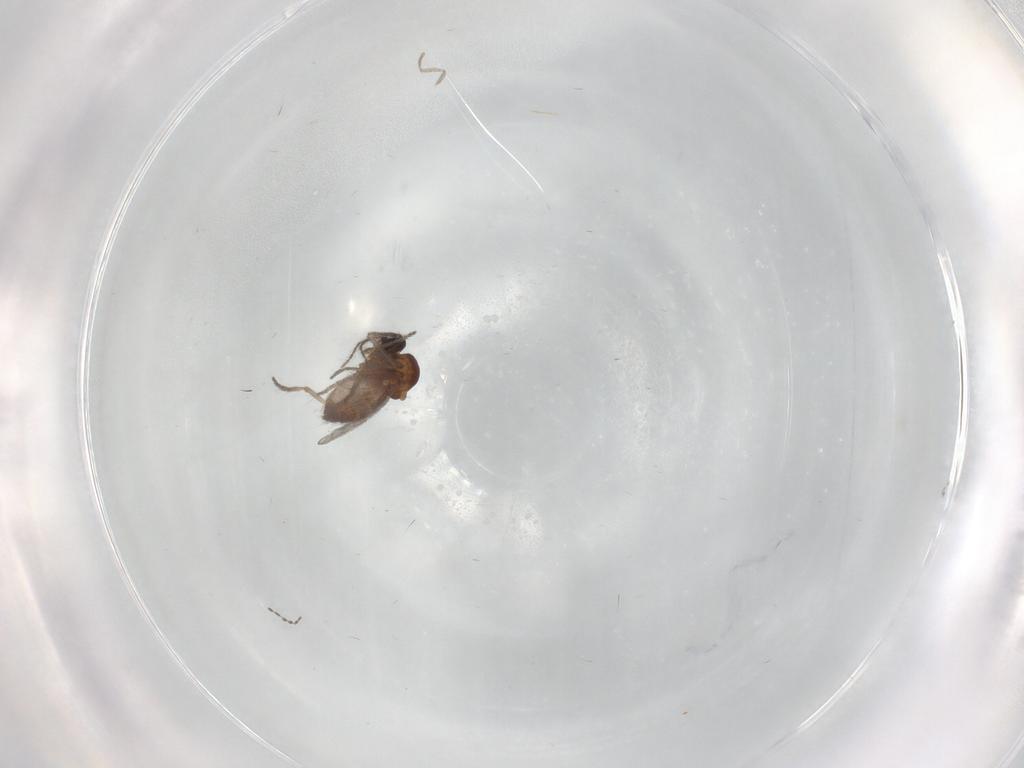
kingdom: Animalia
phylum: Arthropoda
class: Insecta
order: Diptera
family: Ceratopogonidae
